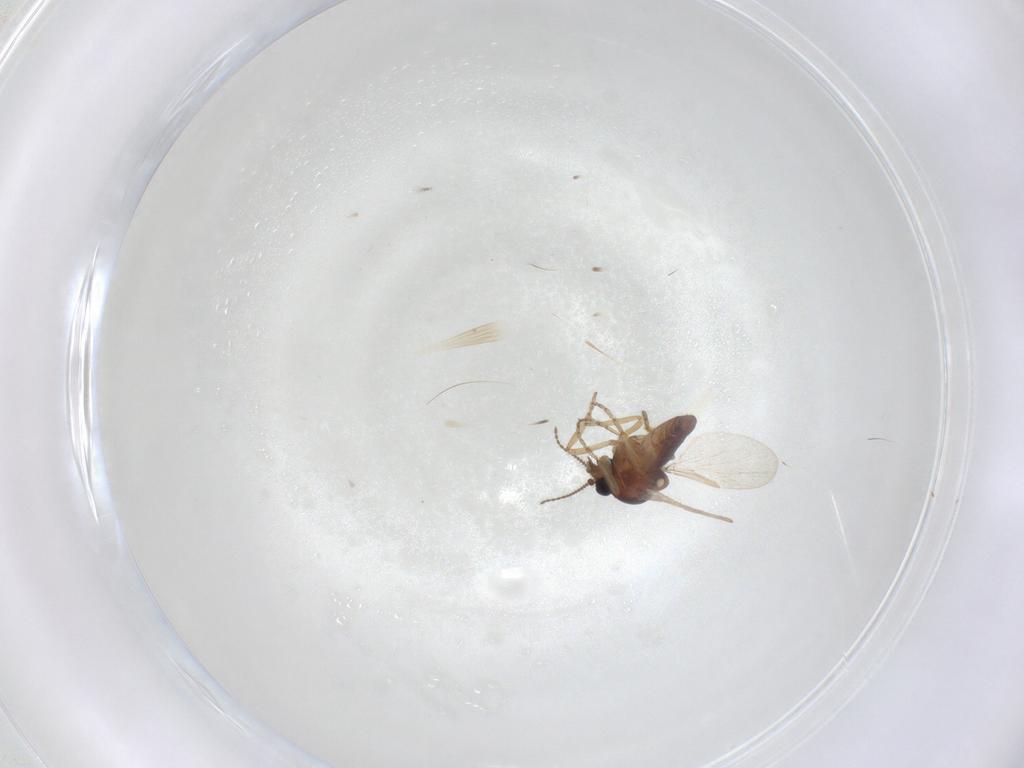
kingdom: Animalia
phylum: Arthropoda
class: Insecta
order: Diptera
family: Ceratopogonidae
